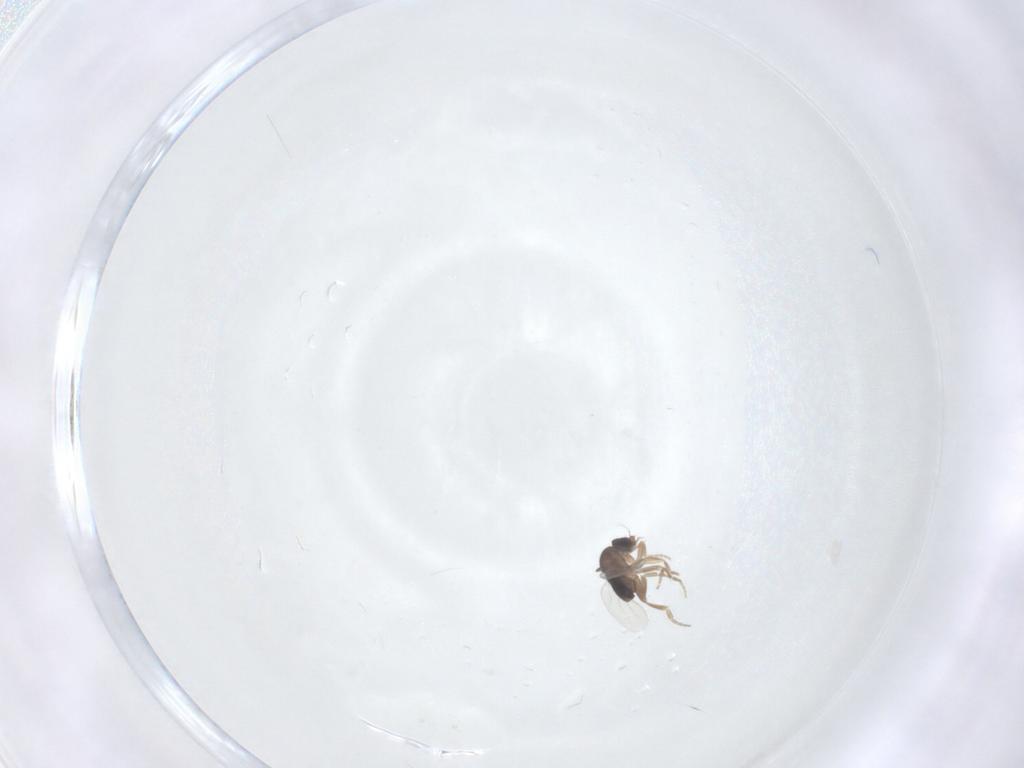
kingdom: Animalia
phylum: Arthropoda
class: Insecta
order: Diptera
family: Phoridae
